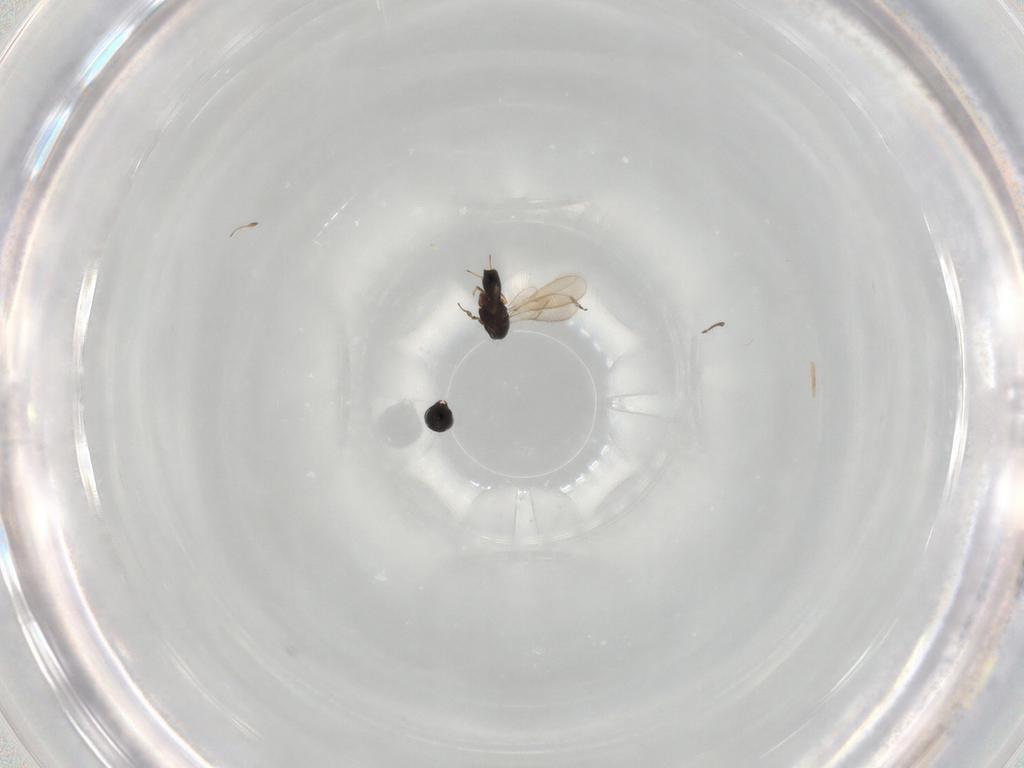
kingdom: Animalia
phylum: Arthropoda
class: Insecta
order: Hymenoptera
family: Scelionidae
